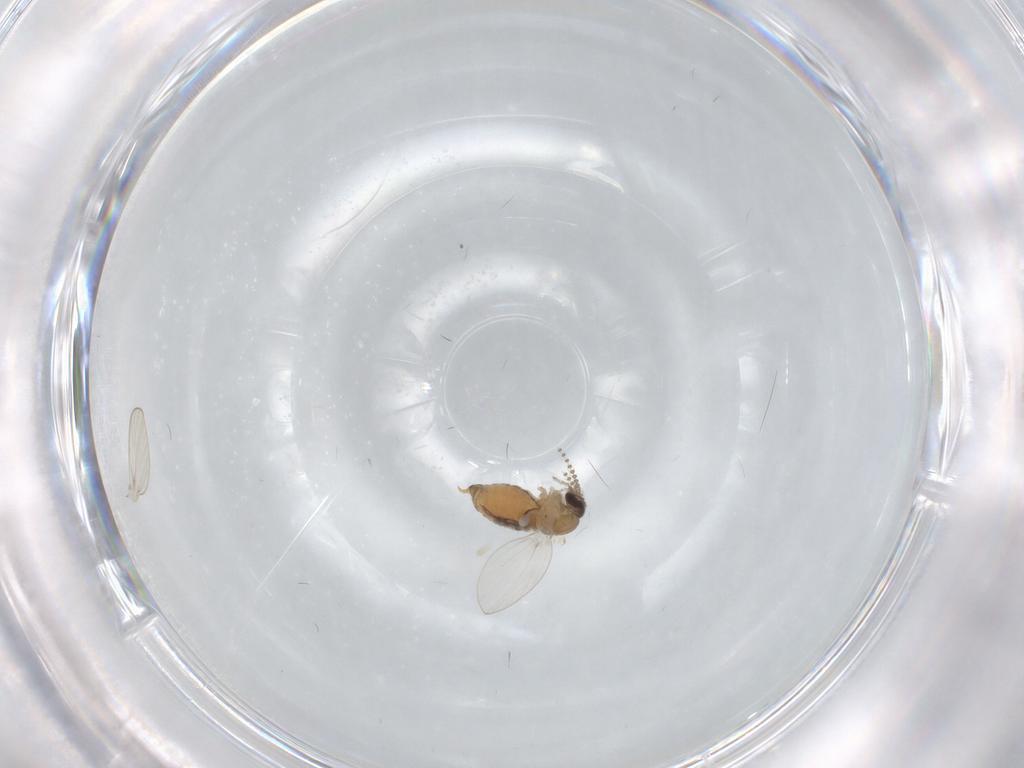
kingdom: Animalia
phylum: Arthropoda
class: Insecta
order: Diptera
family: Psychodidae
